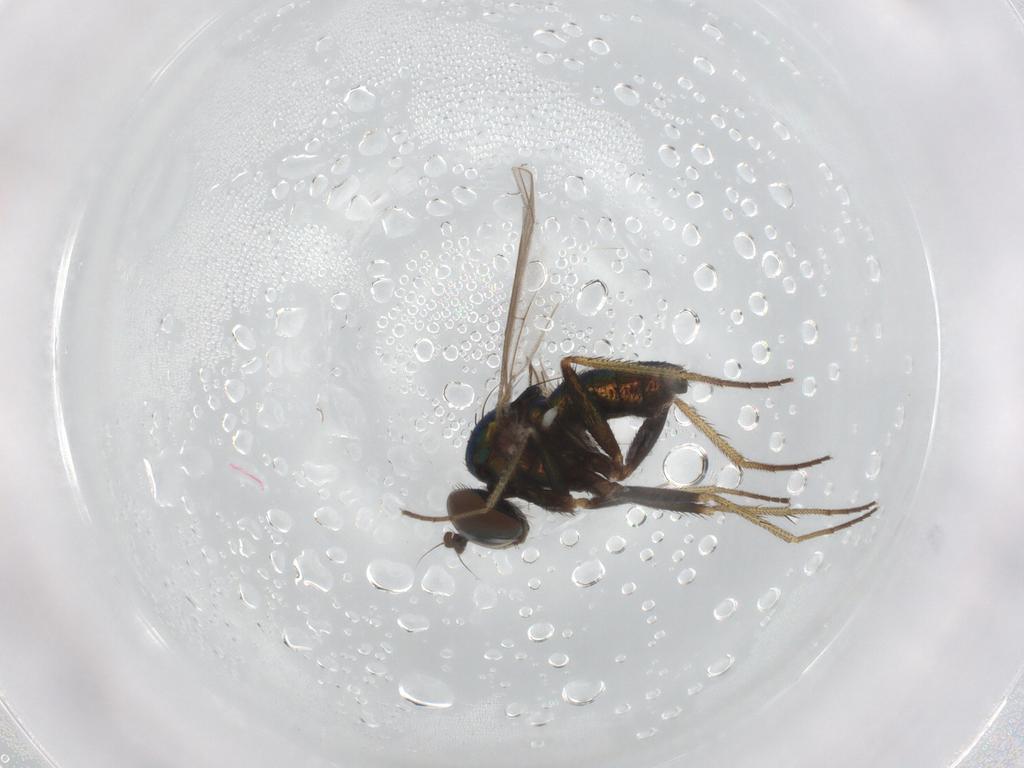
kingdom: Animalia
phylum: Arthropoda
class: Insecta
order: Diptera
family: Dolichopodidae
